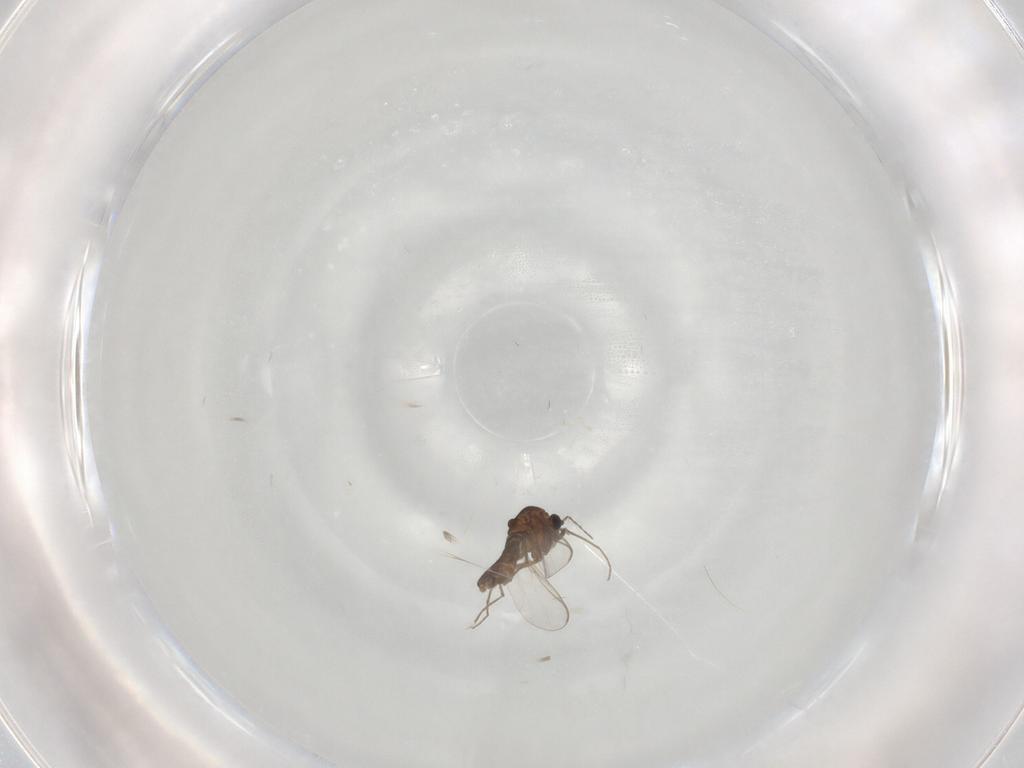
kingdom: Animalia
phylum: Arthropoda
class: Insecta
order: Diptera
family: Chironomidae
